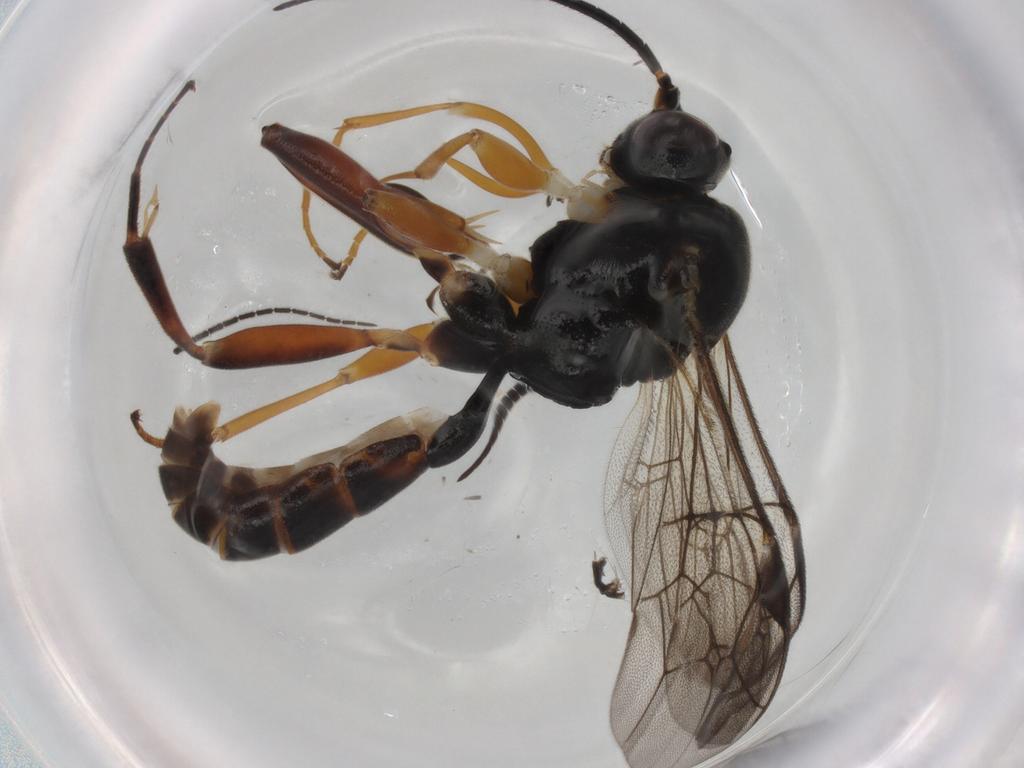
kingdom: Animalia
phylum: Arthropoda
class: Insecta
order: Hymenoptera
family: Ichneumonidae
